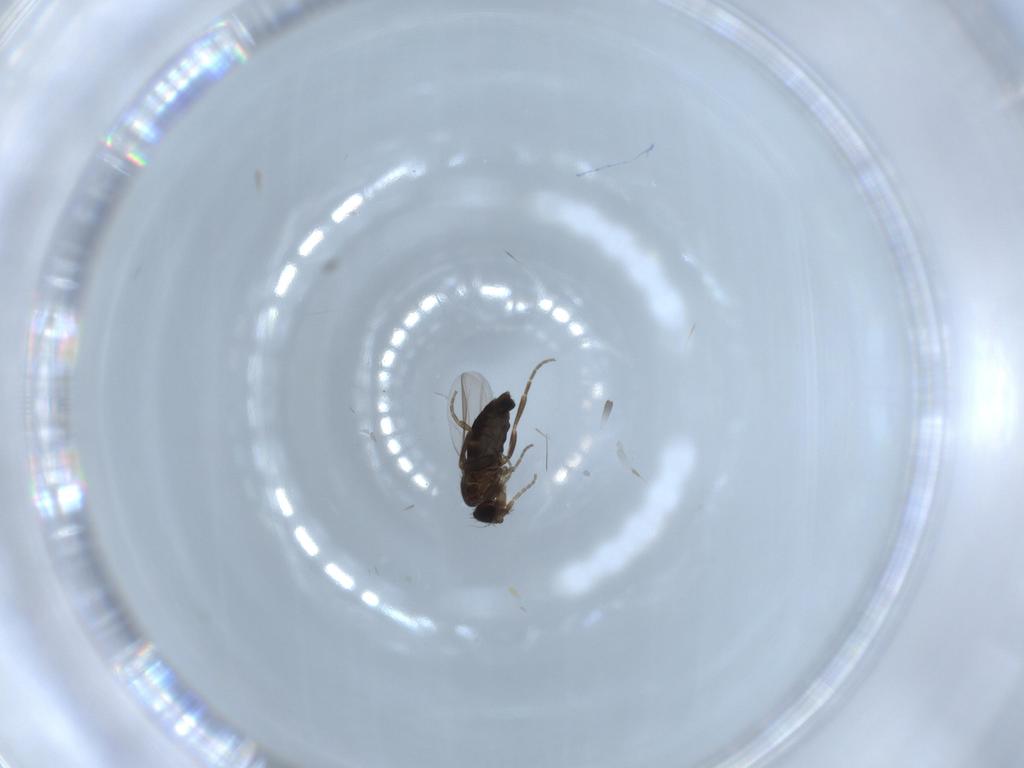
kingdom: Animalia
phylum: Arthropoda
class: Insecta
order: Diptera
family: Phoridae
